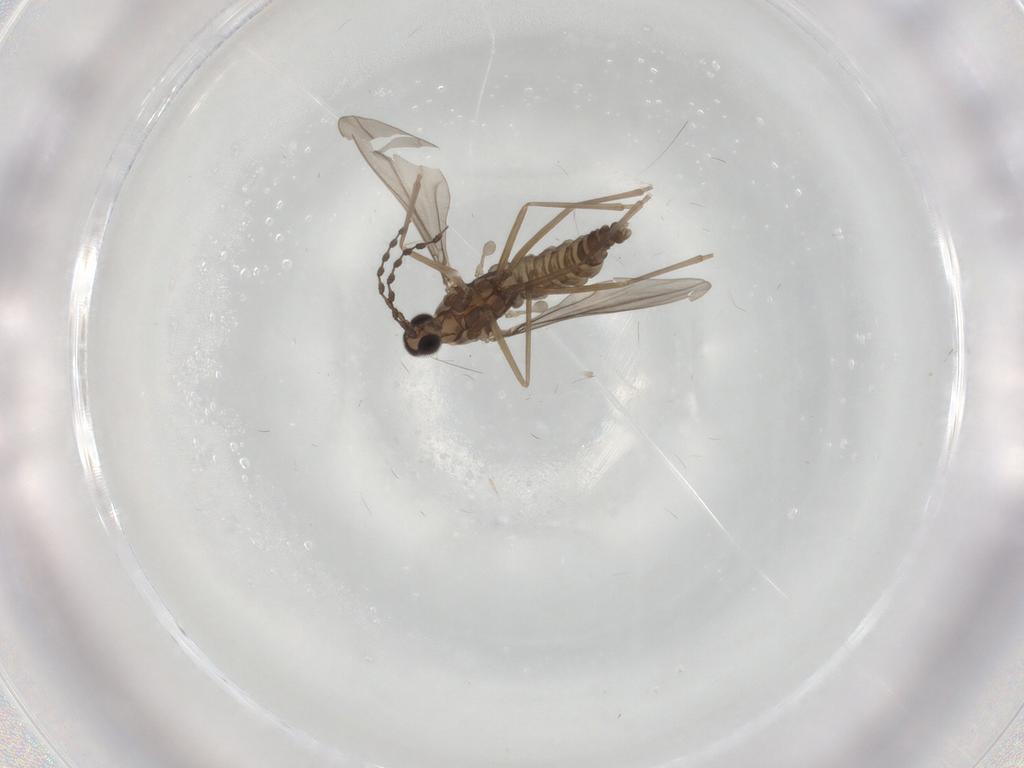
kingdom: Animalia
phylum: Arthropoda
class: Insecta
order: Diptera
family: Cecidomyiidae
